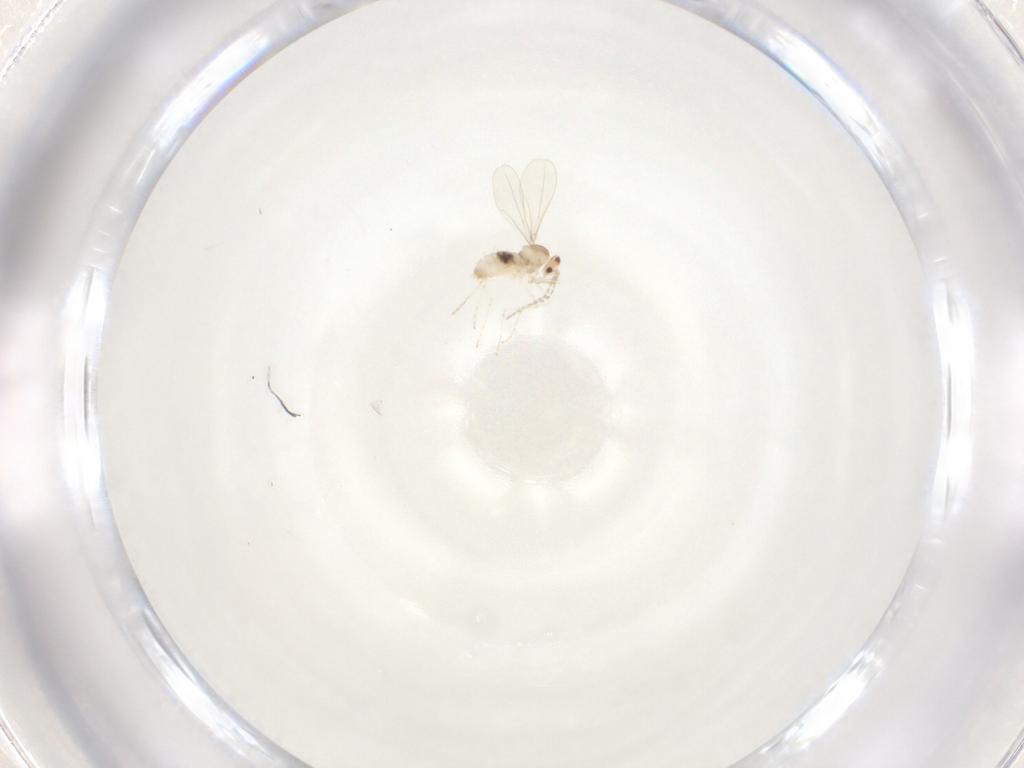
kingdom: Animalia
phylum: Arthropoda
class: Insecta
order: Diptera
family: Cecidomyiidae
